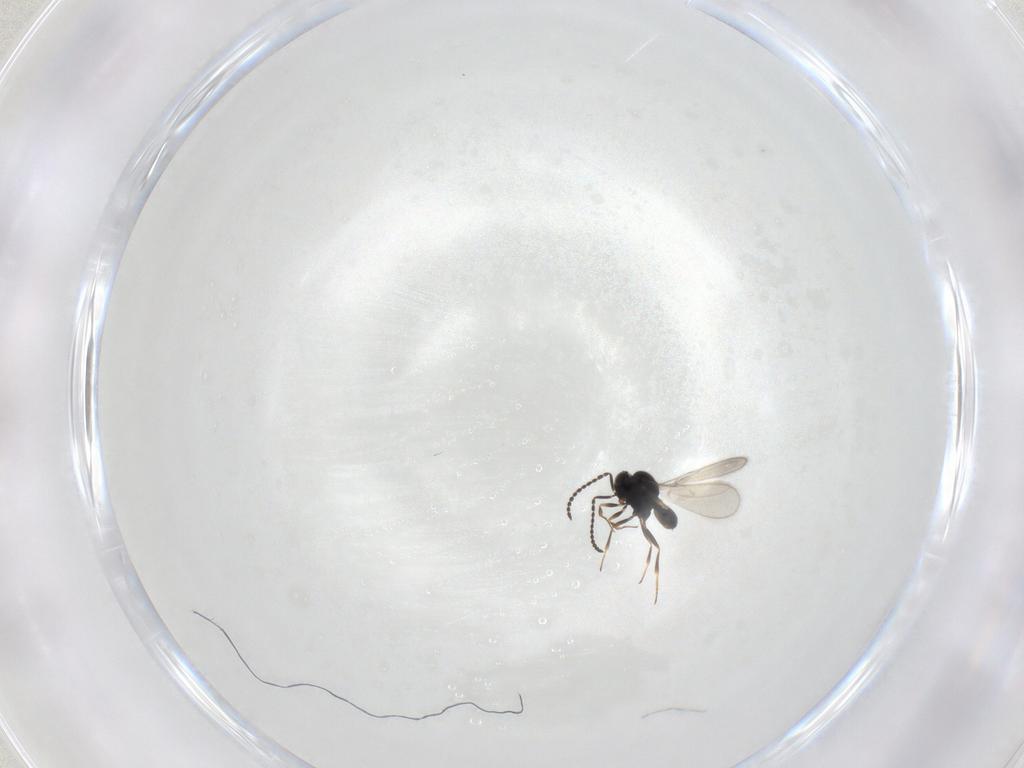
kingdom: Animalia
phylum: Arthropoda
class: Insecta
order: Hymenoptera
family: Scelionidae
